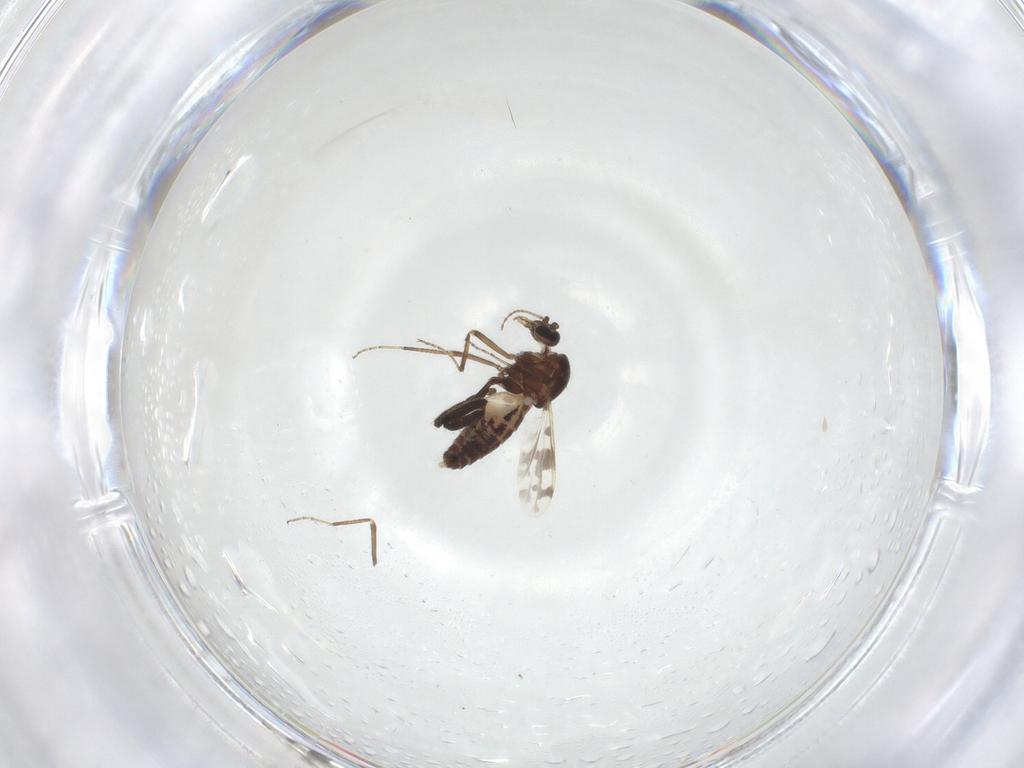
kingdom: Animalia
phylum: Arthropoda
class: Insecta
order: Diptera
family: Ceratopogonidae
